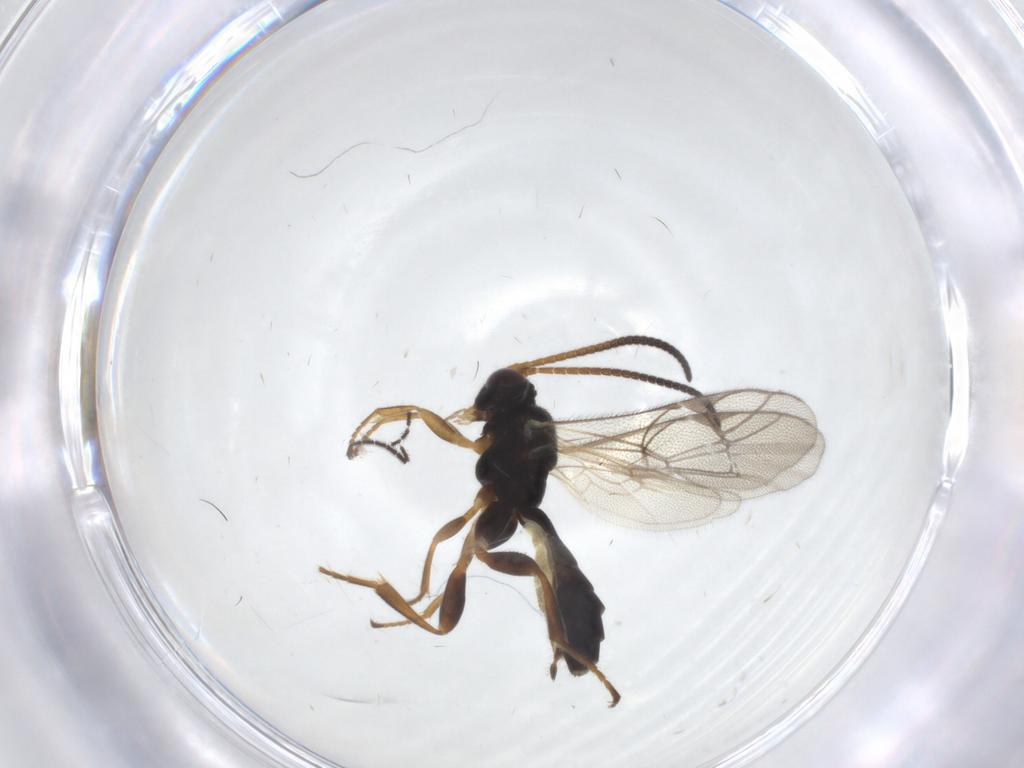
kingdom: Animalia
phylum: Arthropoda
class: Insecta
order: Hymenoptera
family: Ichneumonidae
